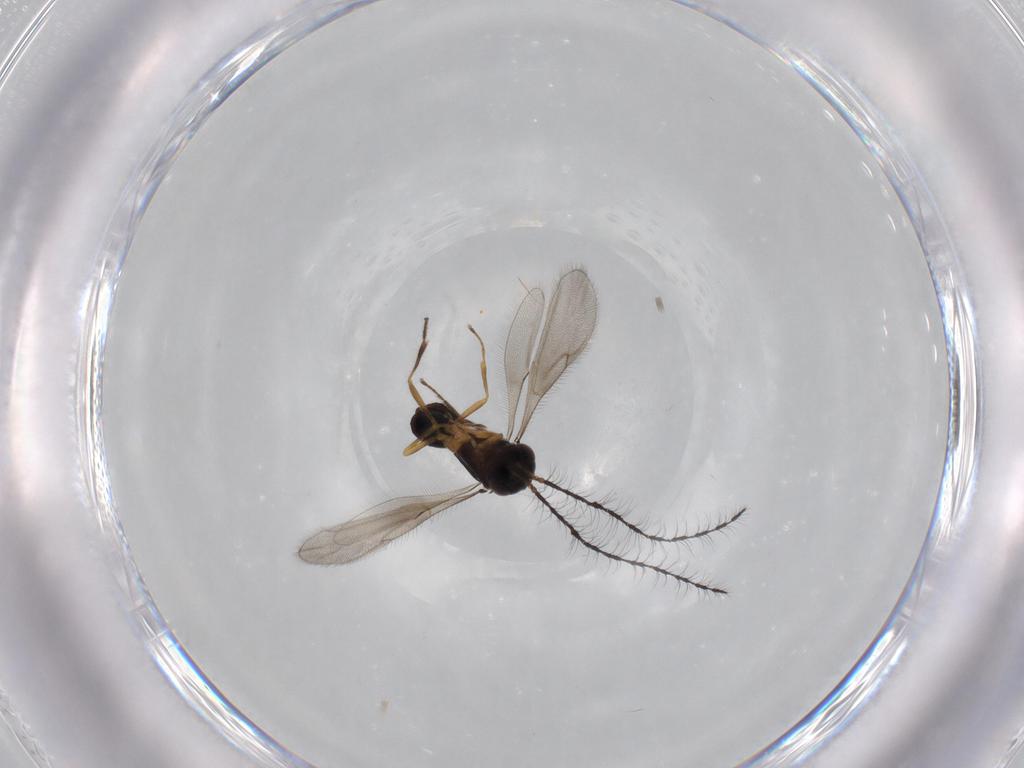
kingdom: Animalia
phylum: Arthropoda
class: Insecta
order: Hymenoptera
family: Scelionidae
